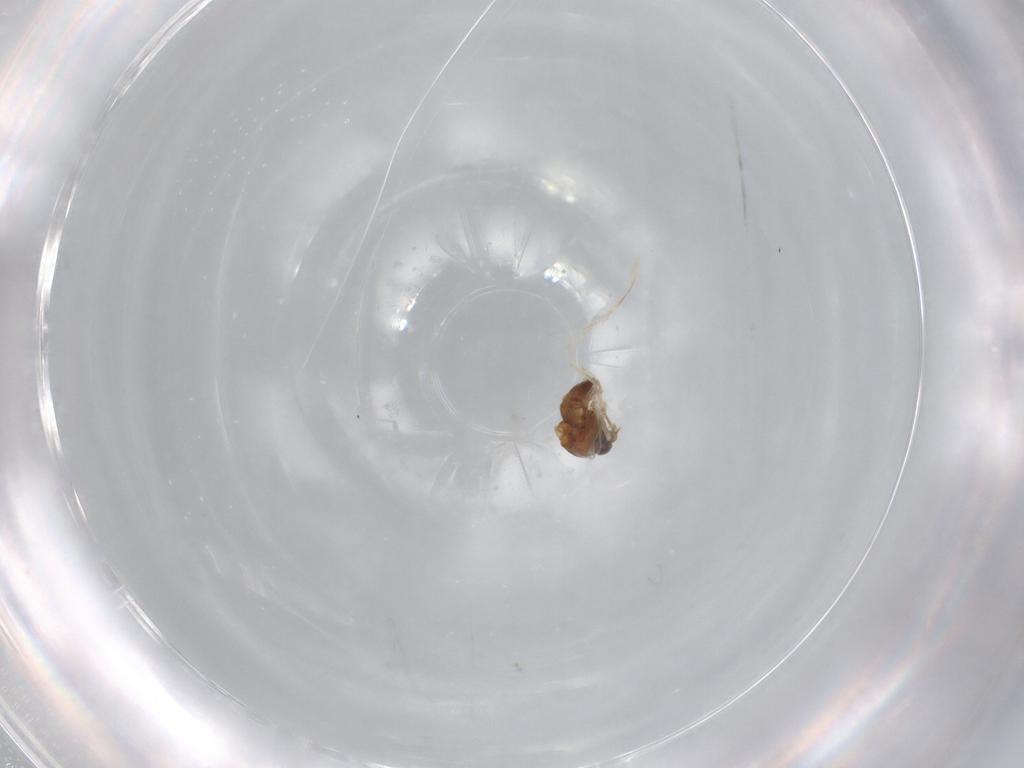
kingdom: Animalia
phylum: Arthropoda
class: Insecta
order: Diptera
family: Ceratopogonidae
